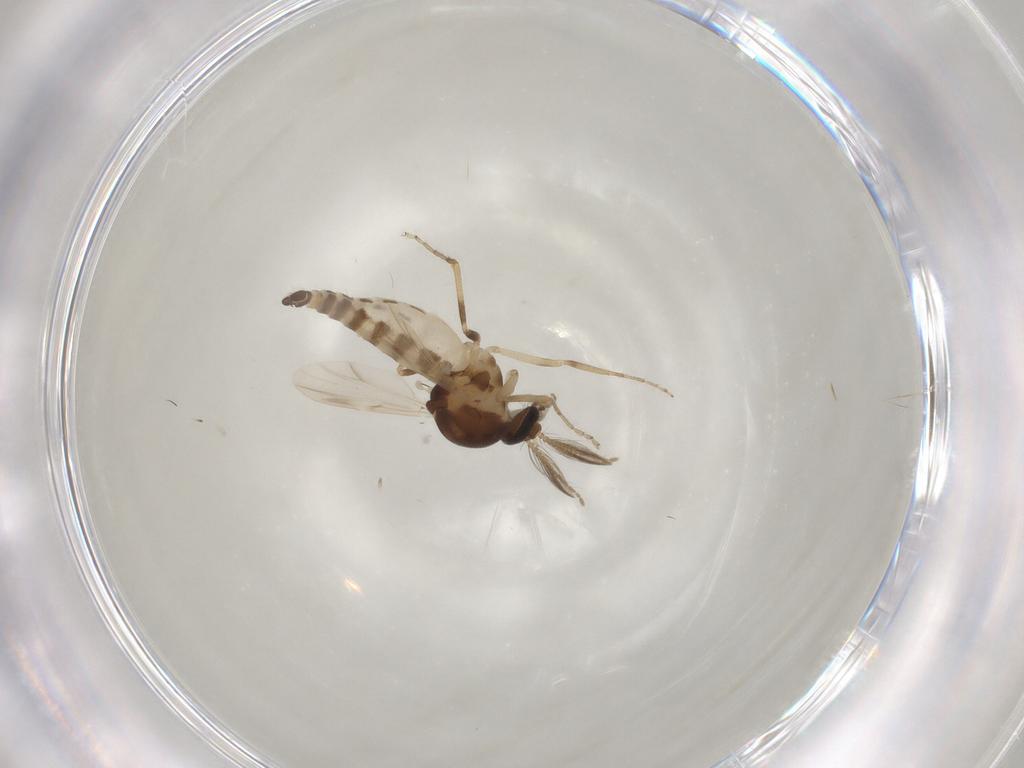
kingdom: Animalia
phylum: Arthropoda
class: Insecta
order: Diptera
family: Ceratopogonidae
